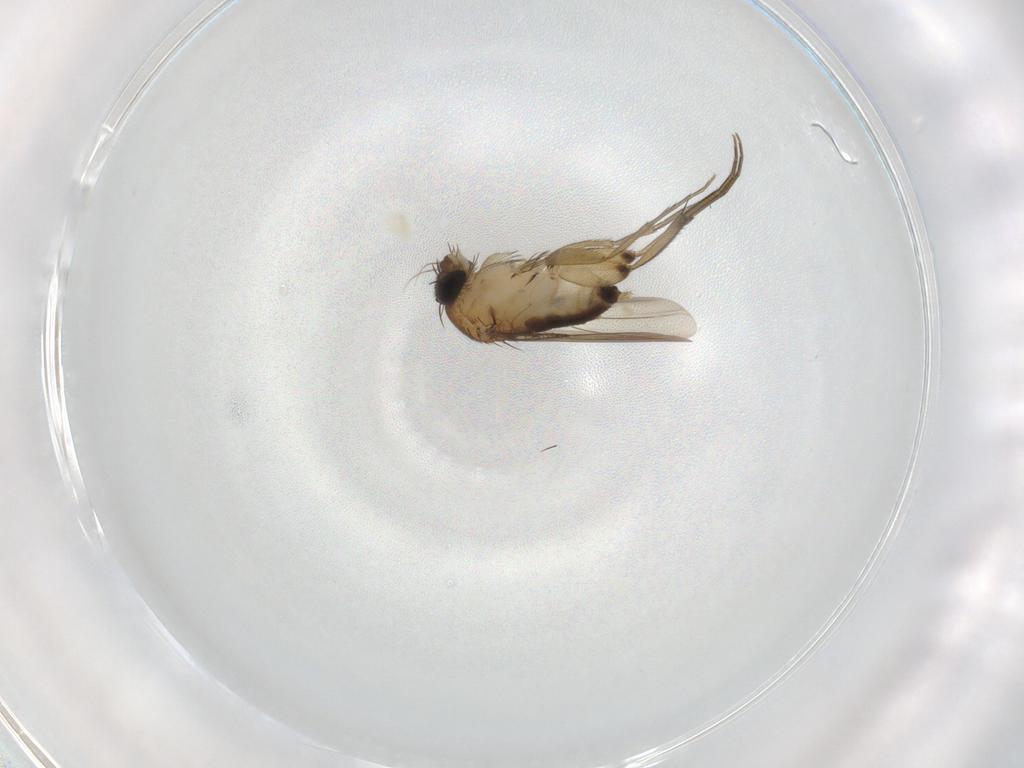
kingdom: Animalia
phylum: Arthropoda
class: Insecta
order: Diptera
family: Phoridae
